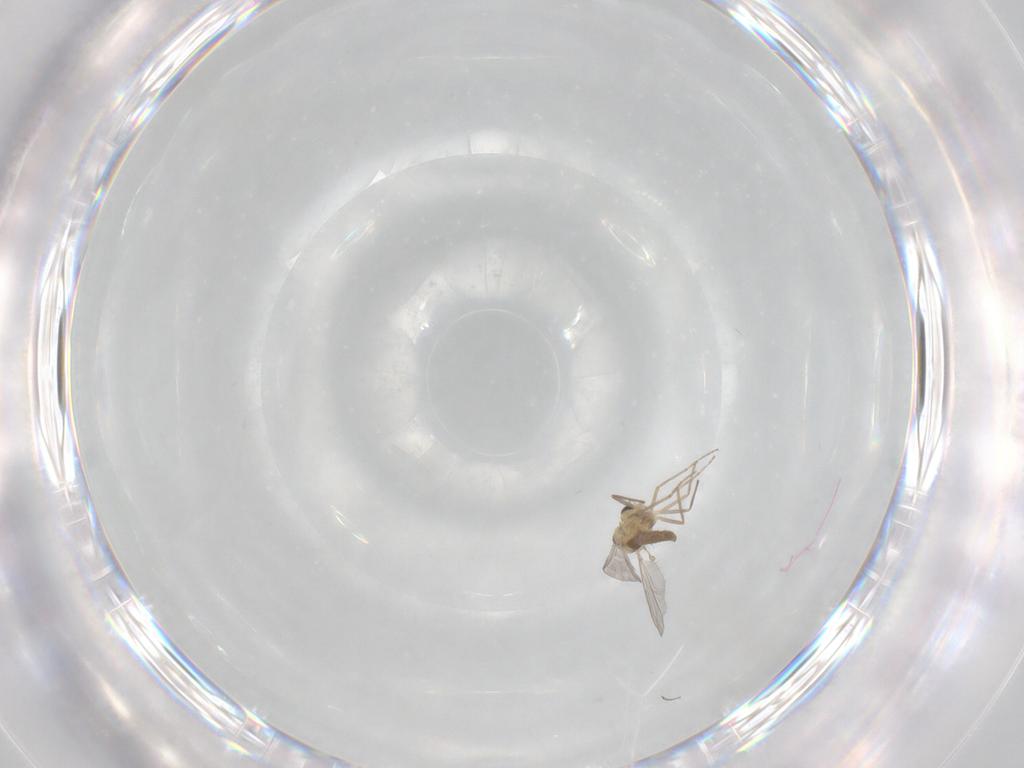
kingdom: Animalia
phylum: Arthropoda
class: Insecta
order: Diptera
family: Chironomidae
